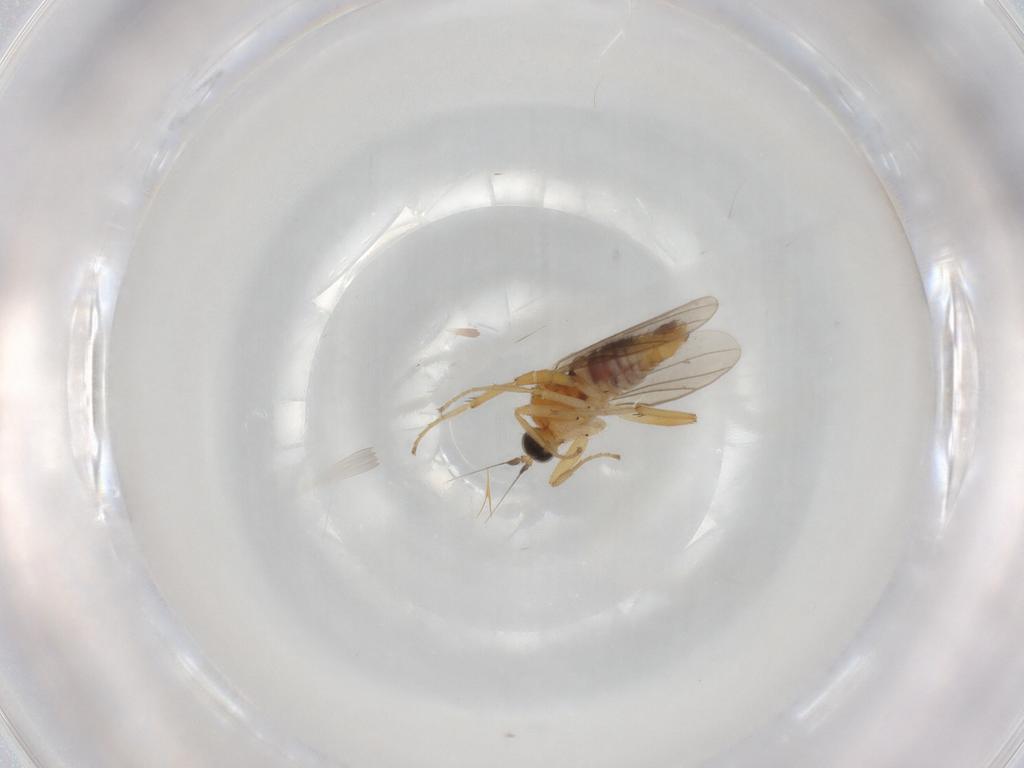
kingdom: Animalia
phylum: Arthropoda
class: Insecta
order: Diptera
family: Hybotidae
